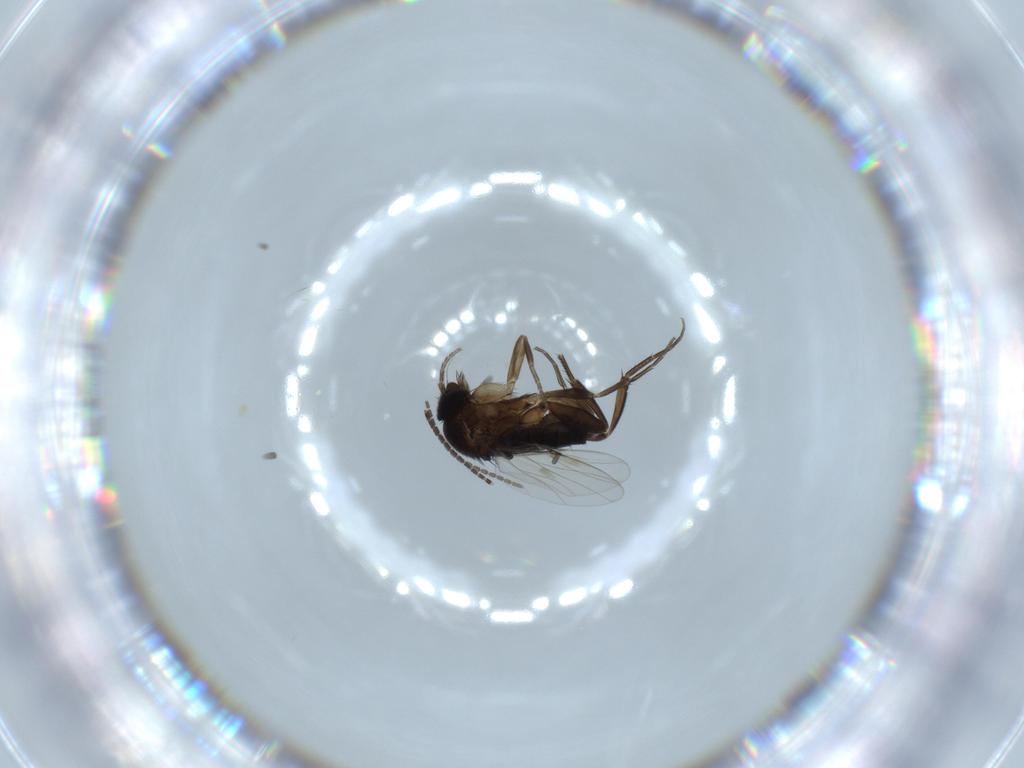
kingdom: Animalia
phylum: Arthropoda
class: Insecta
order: Diptera
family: Phoridae
